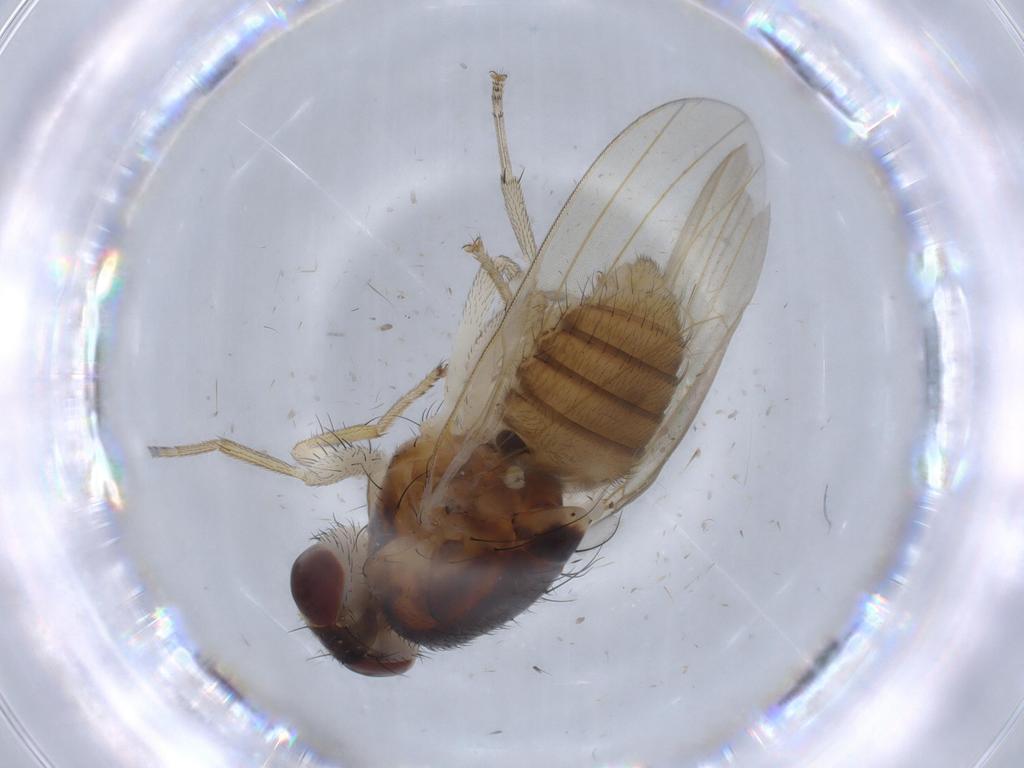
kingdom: Animalia
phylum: Arthropoda
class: Insecta
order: Diptera
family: Lauxaniidae
